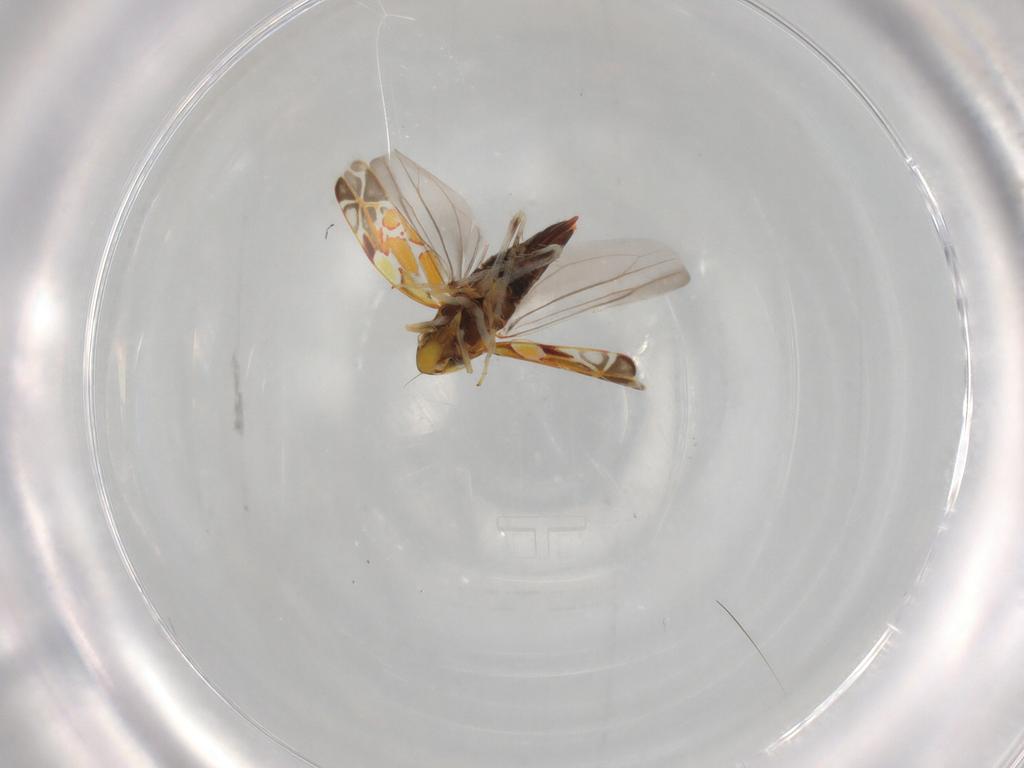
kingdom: Animalia
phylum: Arthropoda
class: Insecta
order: Hemiptera
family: Cicadellidae
